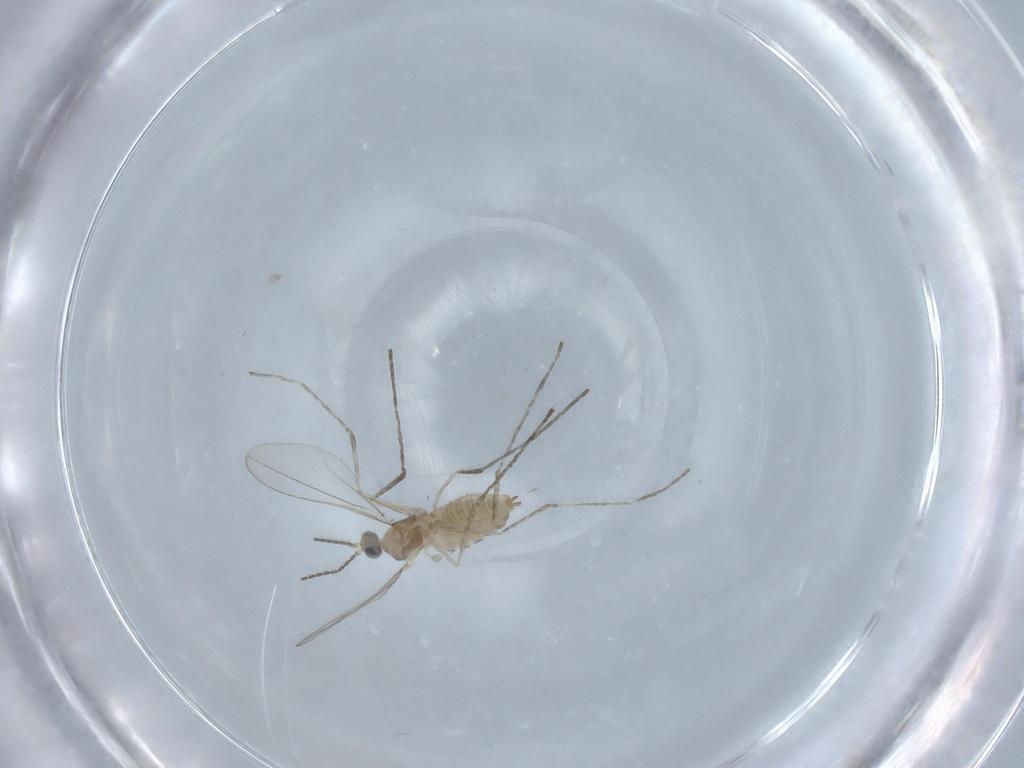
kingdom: Animalia
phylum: Arthropoda
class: Insecta
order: Diptera
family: Cecidomyiidae
